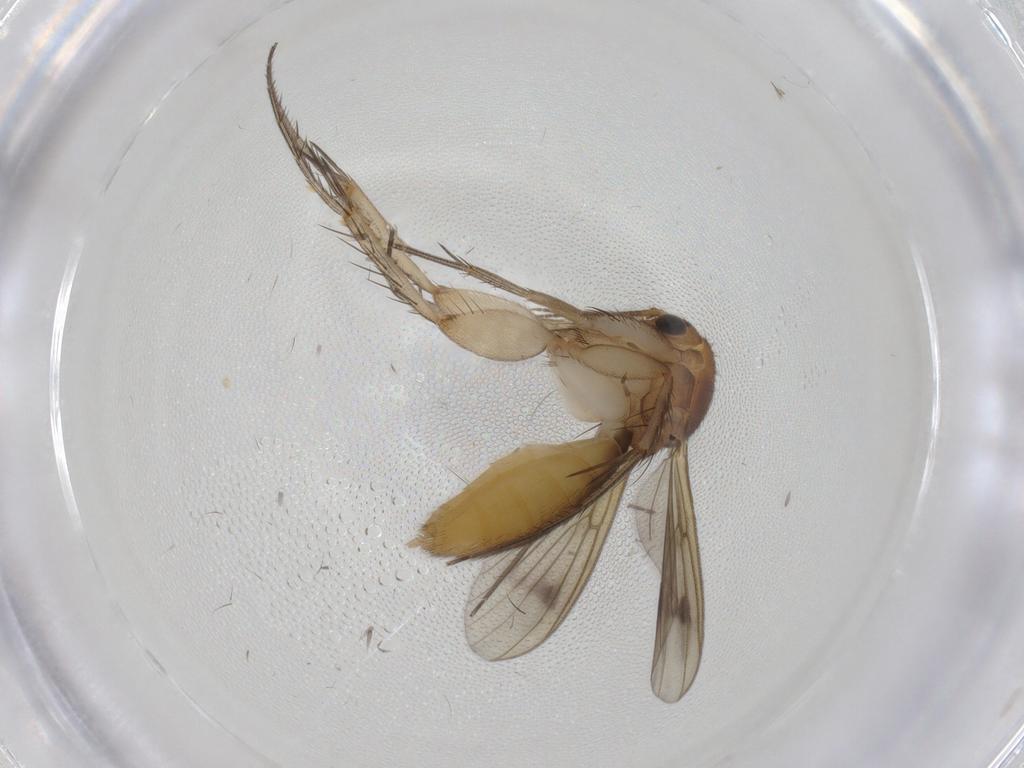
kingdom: Animalia
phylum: Arthropoda
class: Insecta
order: Diptera
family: Mycetophilidae
